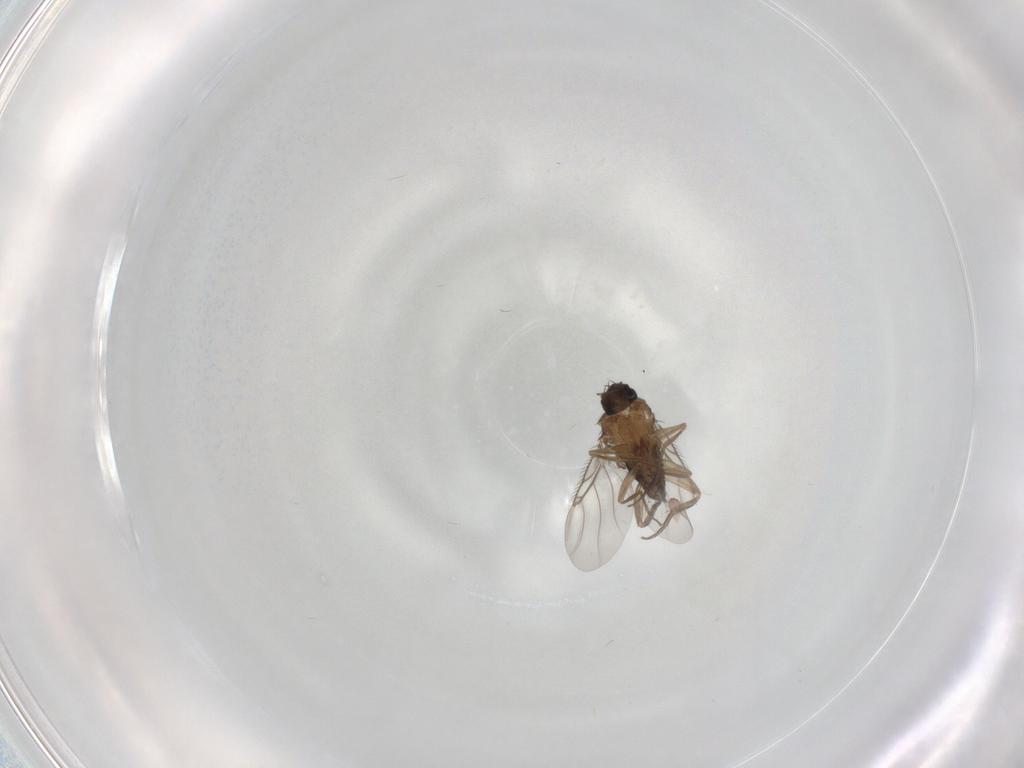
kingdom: Animalia
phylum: Arthropoda
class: Insecta
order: Diptera
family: Phoridae
